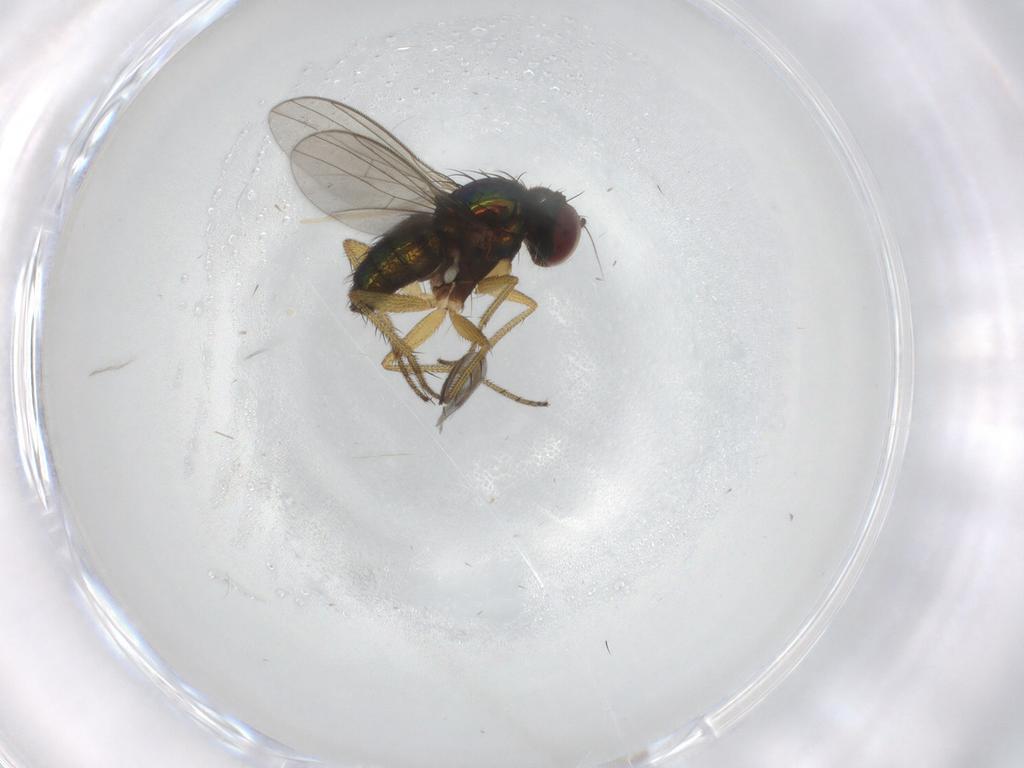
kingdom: Animalia
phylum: Arthropoda
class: Insecta
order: Diptera
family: Chironomidae
